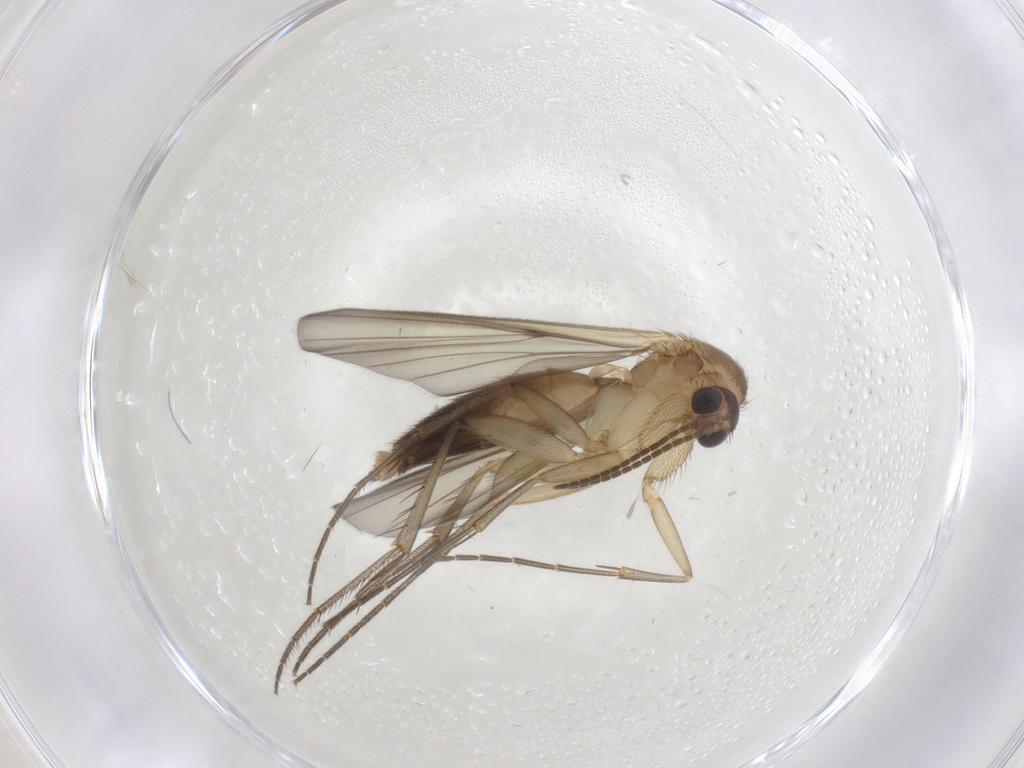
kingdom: Animalia
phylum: Arthropoda
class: Insecta
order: Diptera
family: Mycetophilidae
